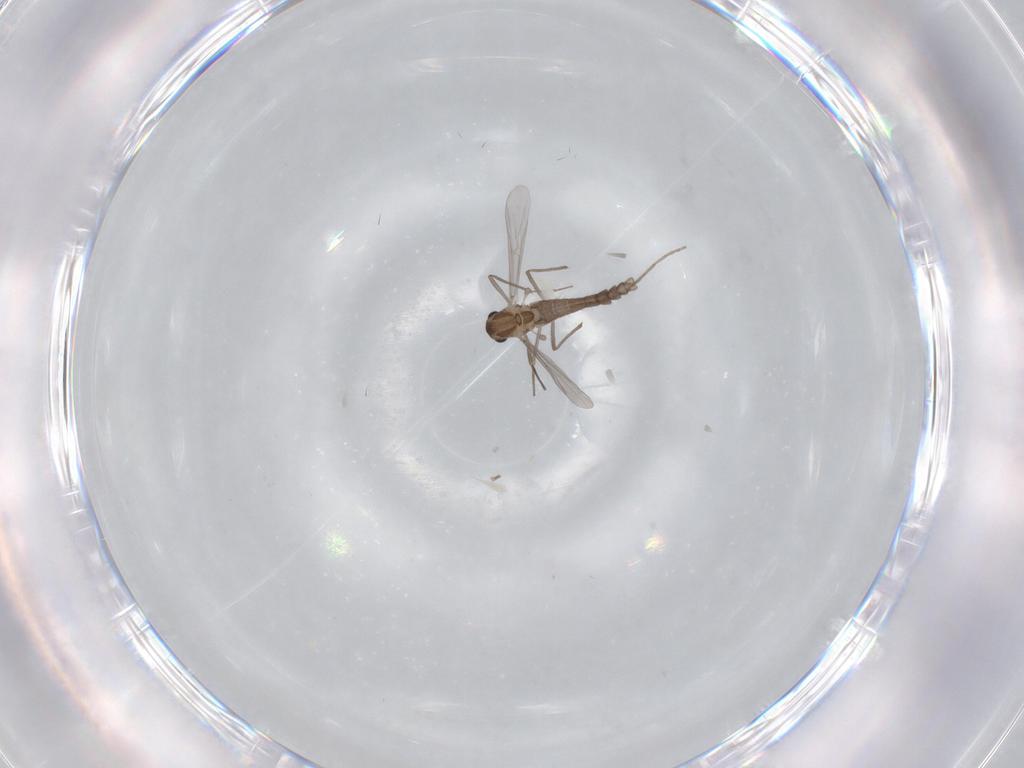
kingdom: Animalia
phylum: Arthropoda
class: Insecta
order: Diptera
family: Chironomidae
